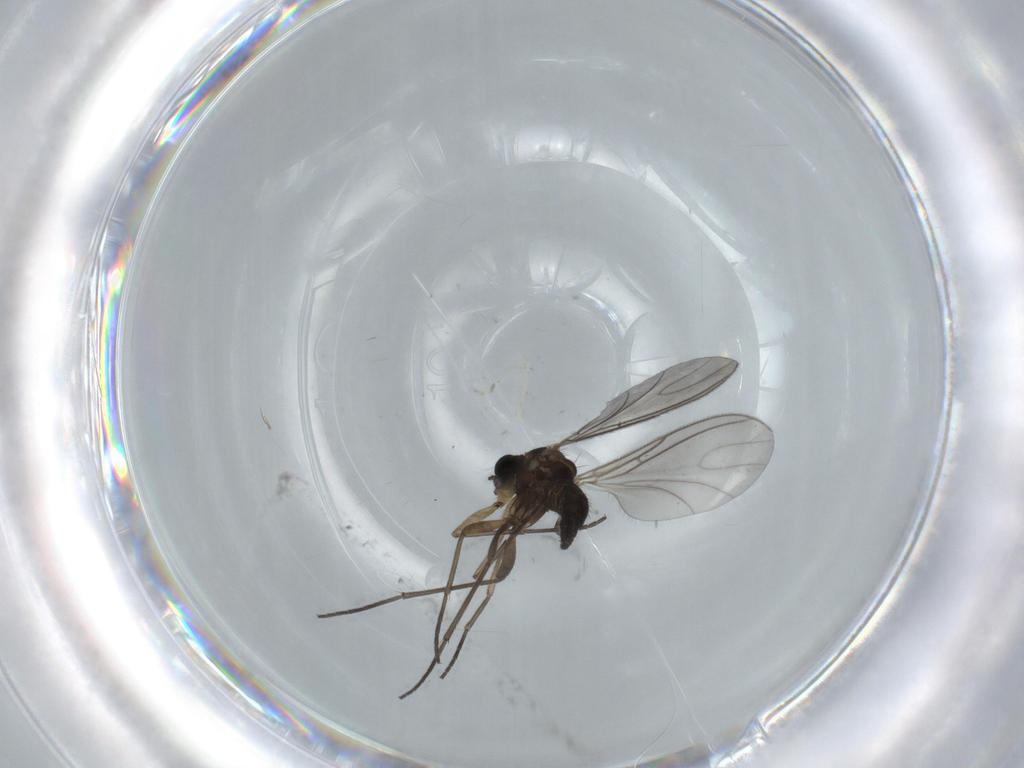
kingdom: Animalia
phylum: Arthropoda
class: Insecta
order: Diptera
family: Sciaridae
